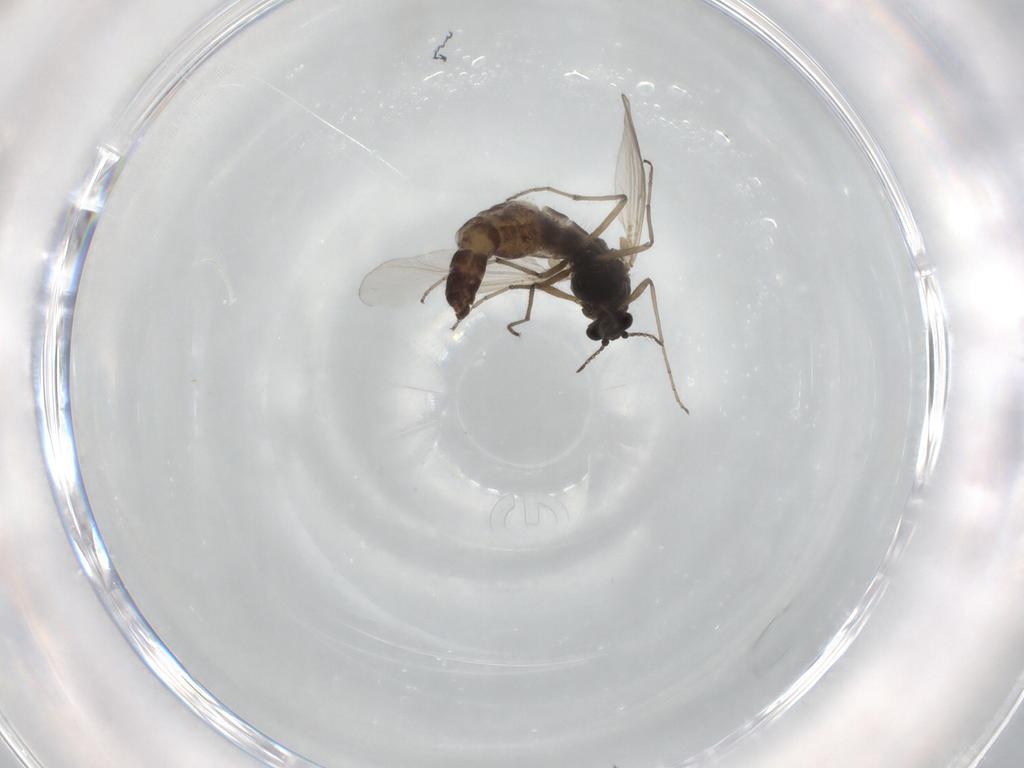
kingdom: Animalia
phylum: Arthropoda
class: Insecta
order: Diptera
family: Chironomidae
